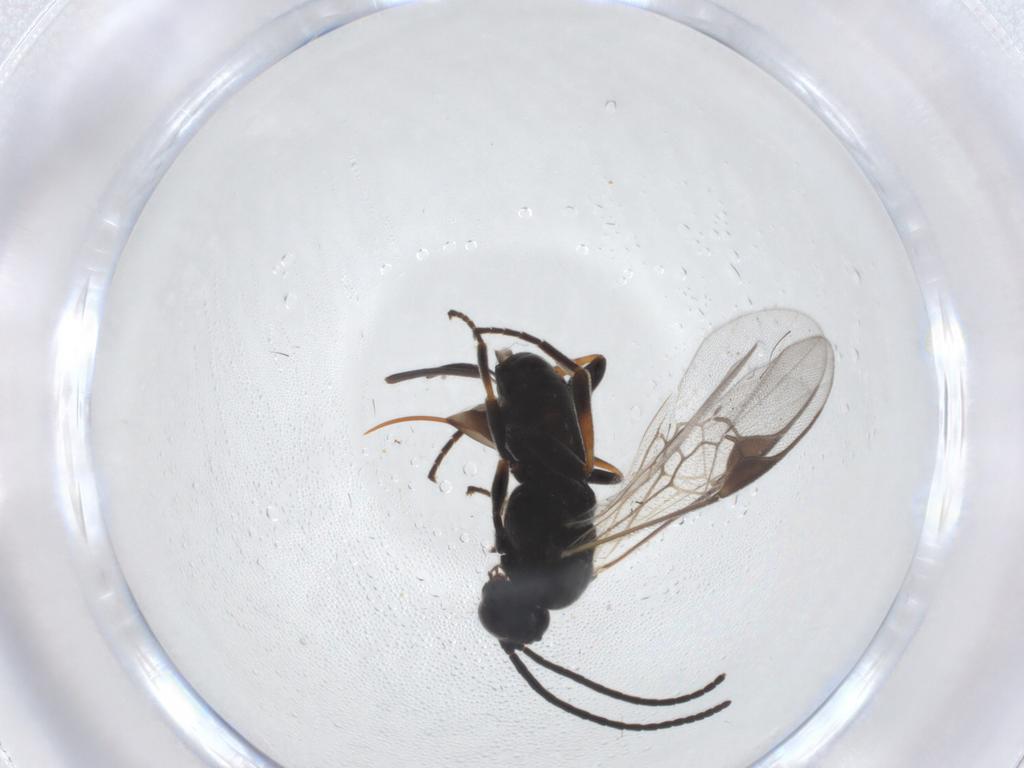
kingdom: Animalia
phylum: Arthropoda
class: Insecta
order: Hymenoptera
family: Braconidae
